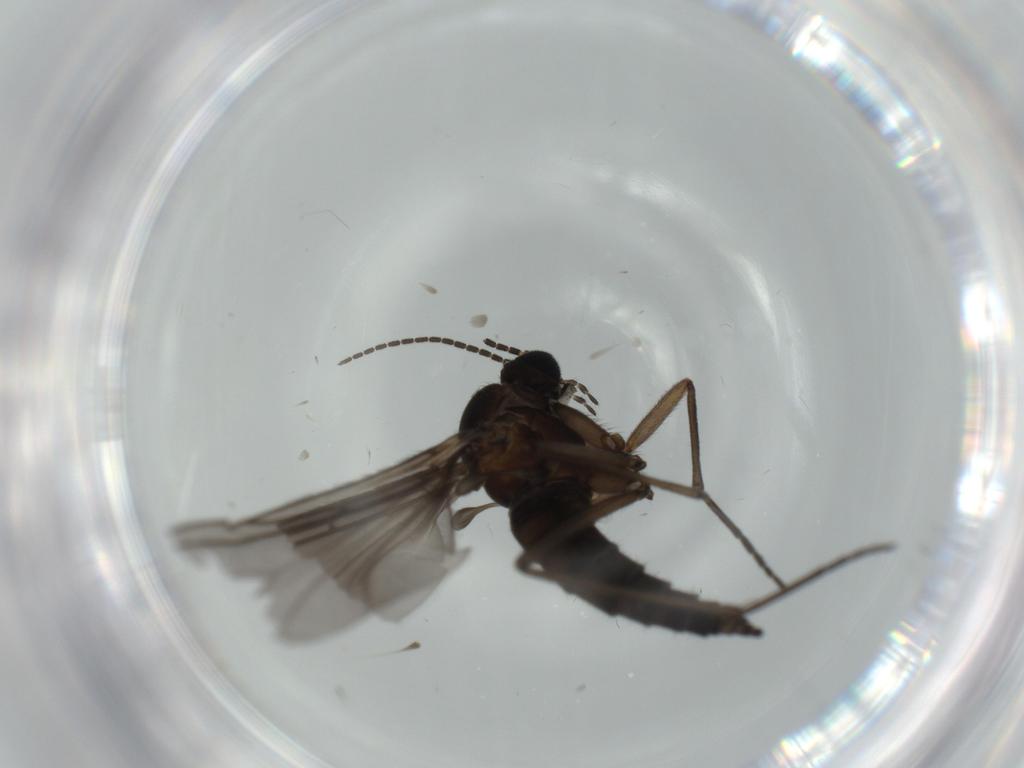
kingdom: Animalia
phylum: Arthropoda
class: Insecta
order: Diptera
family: Sciaridae
